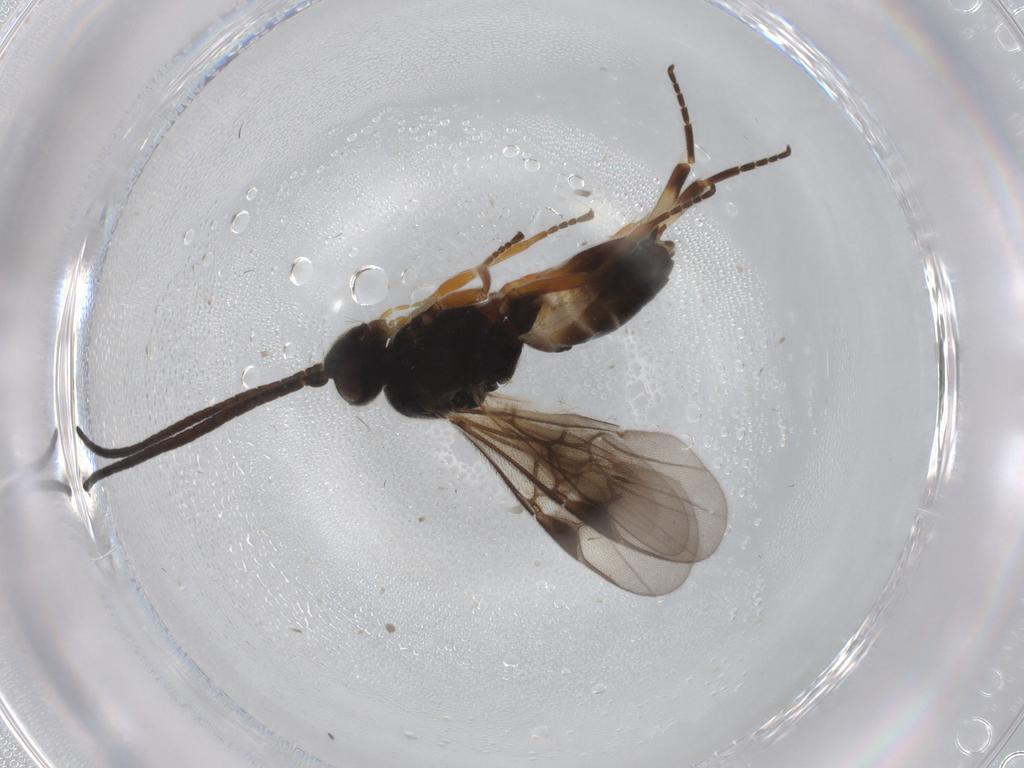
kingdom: Animalia
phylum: Arthropoda
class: Insecta
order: Hymenoptera
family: Braconidae
